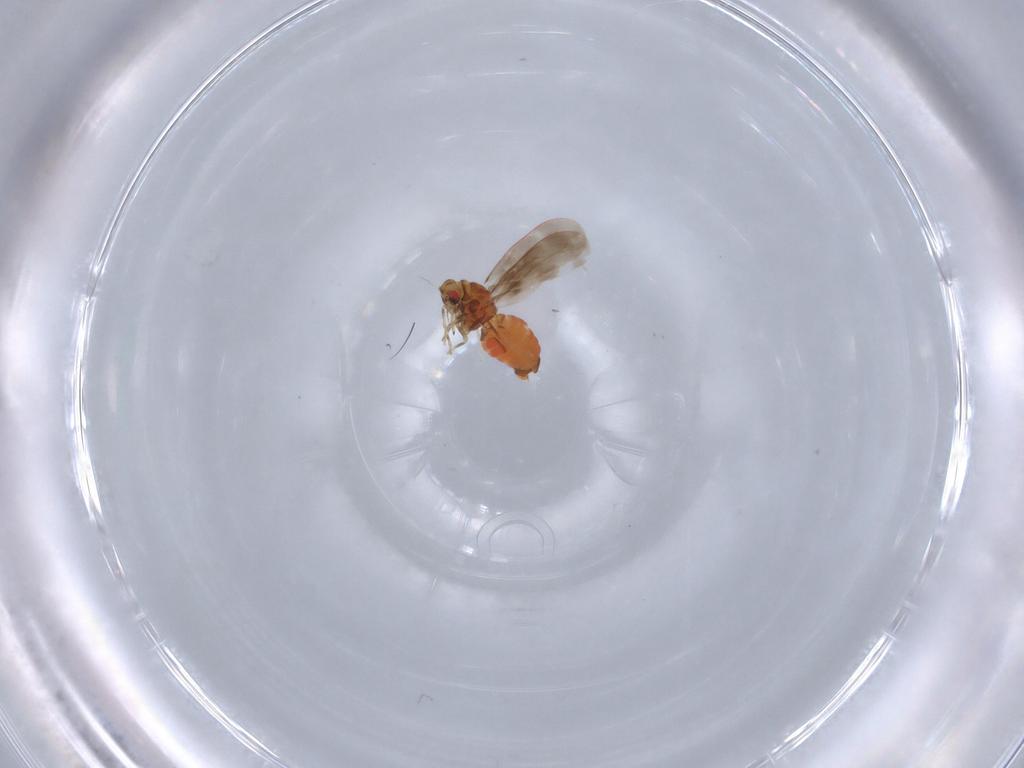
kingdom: Animalia
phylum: Arthropoda
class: Insecta
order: Hemiptera
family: Aleyrodidae
